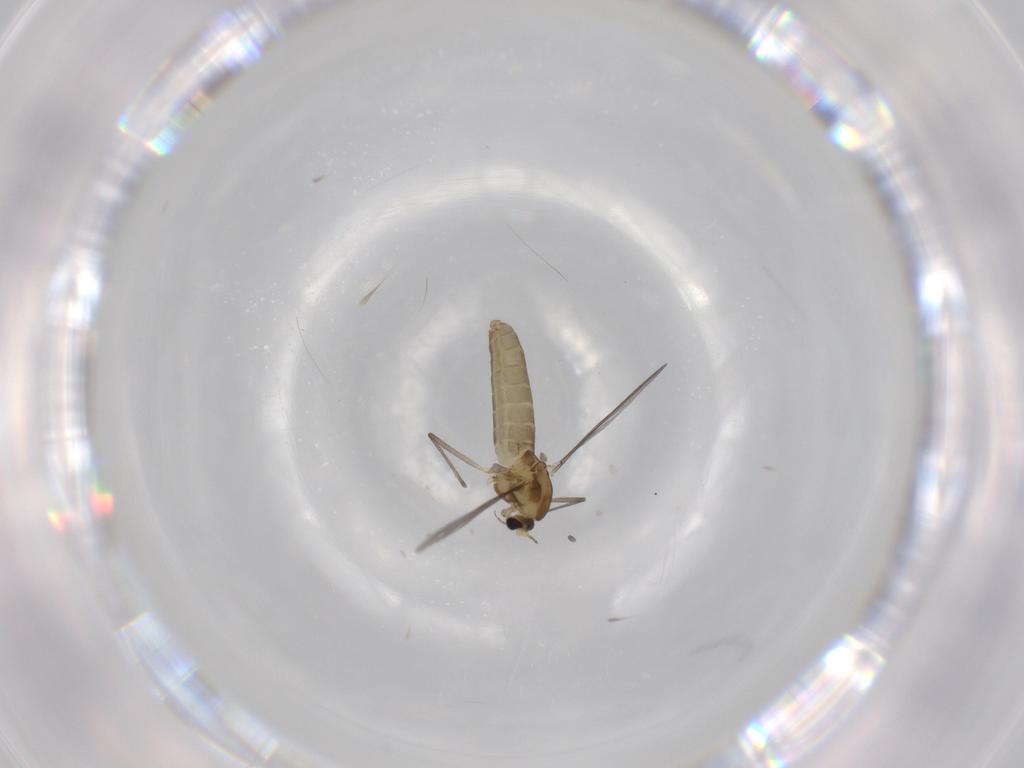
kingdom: Animalia
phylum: Arthropoda
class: Insecta
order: Diptera
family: Chironomidae
